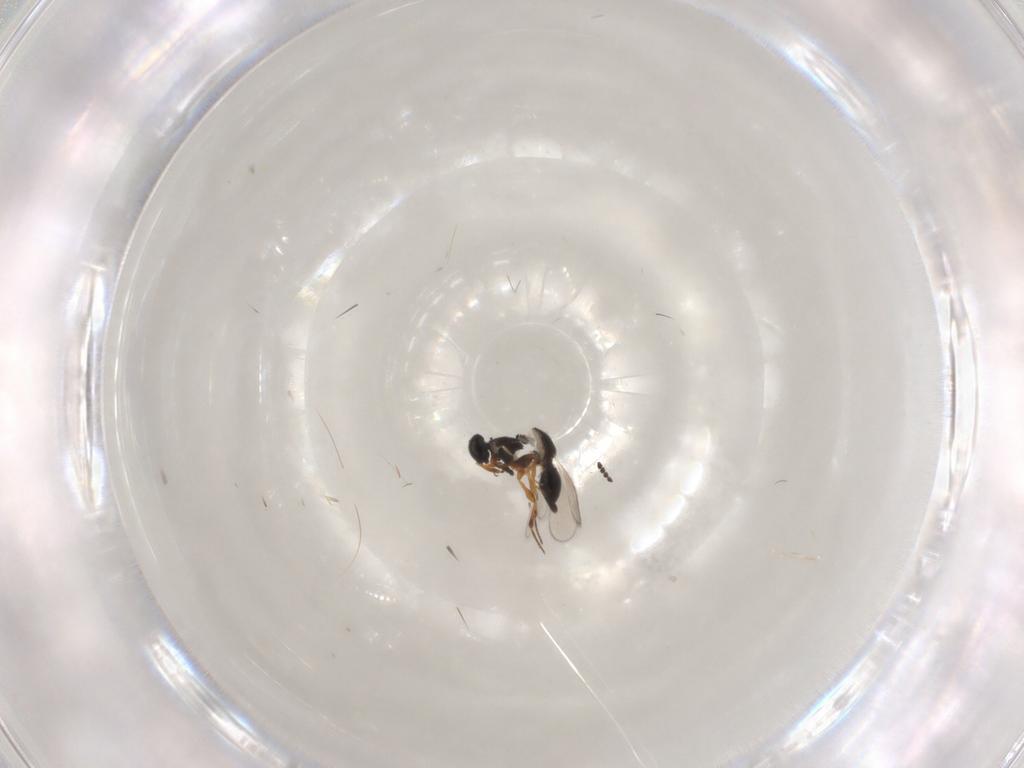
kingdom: Animalia
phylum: Arthropoda
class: Insecta
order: Hymenoptera
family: Platygastridae
